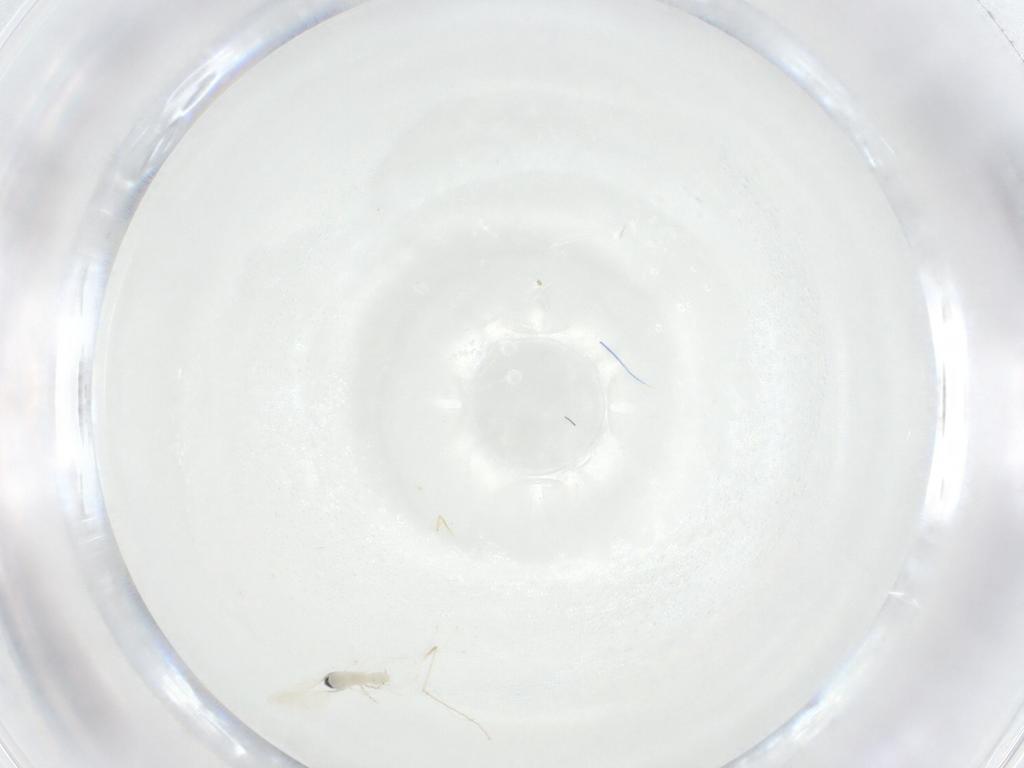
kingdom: Animalia
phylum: Arthropoda
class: Insecta
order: Diptera
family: Cecidomyiidae
